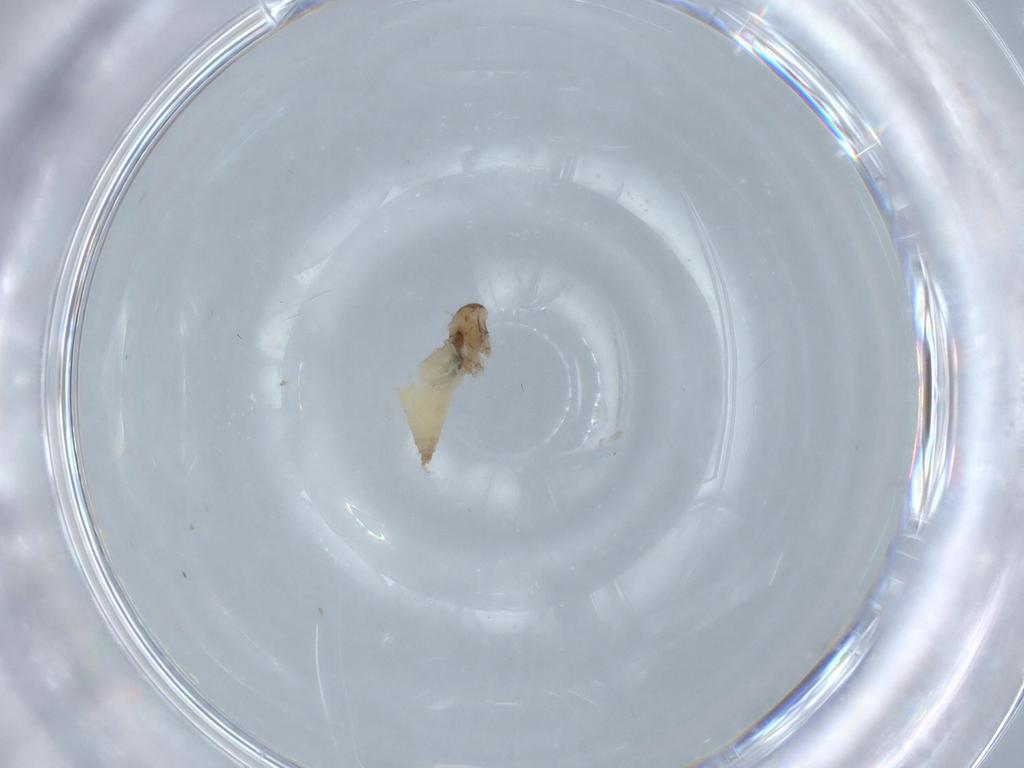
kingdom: Animalia
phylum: Arthropoda
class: Insecta
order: Diptera
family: Cecidomyiidae
